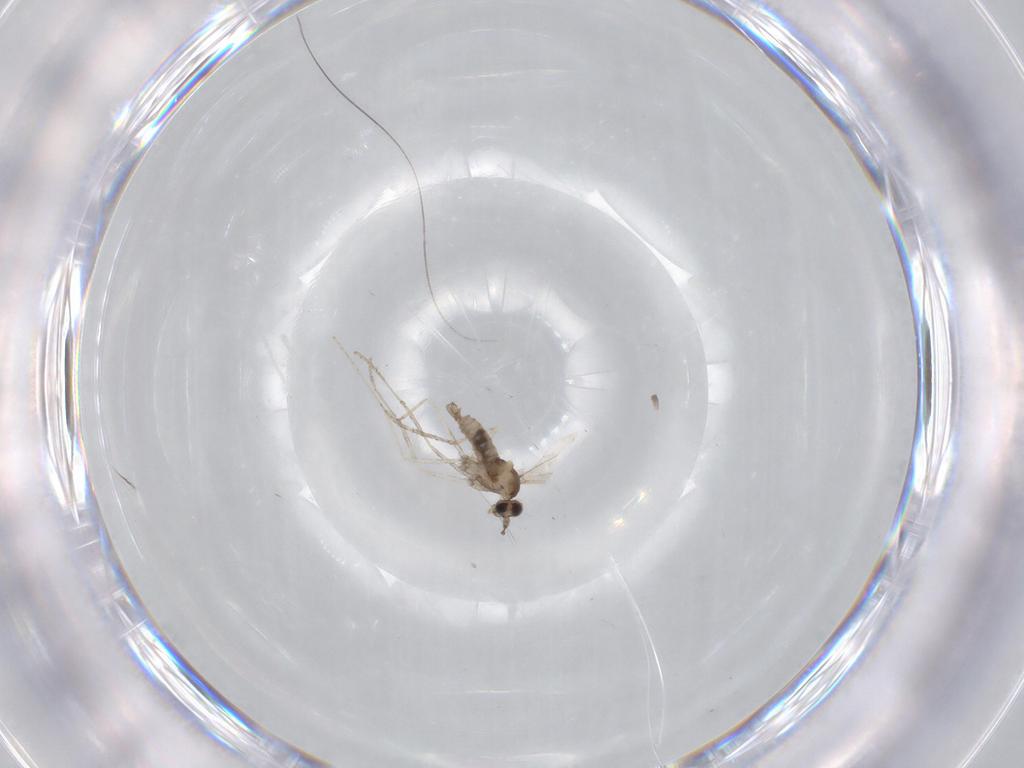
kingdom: Animalia
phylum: Arthropoda
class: Insecta
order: Diptera
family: Cecidomyiidae
